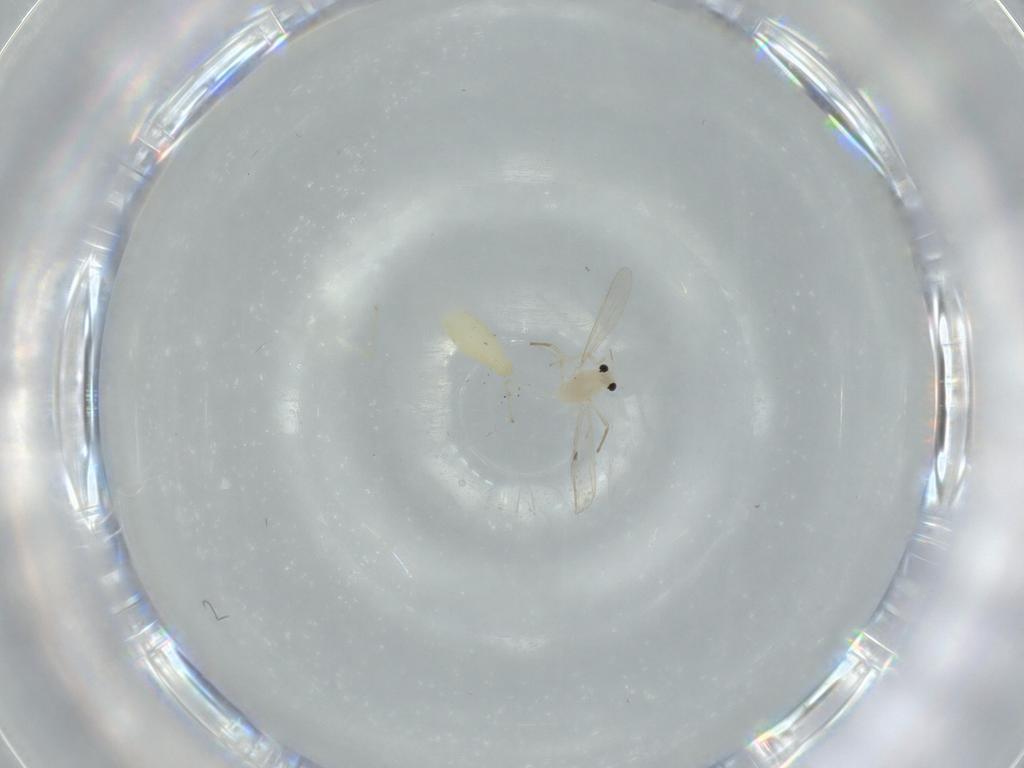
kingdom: Animalia
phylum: Arthropoda
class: Insecta
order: Diptera
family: Chironomidae
